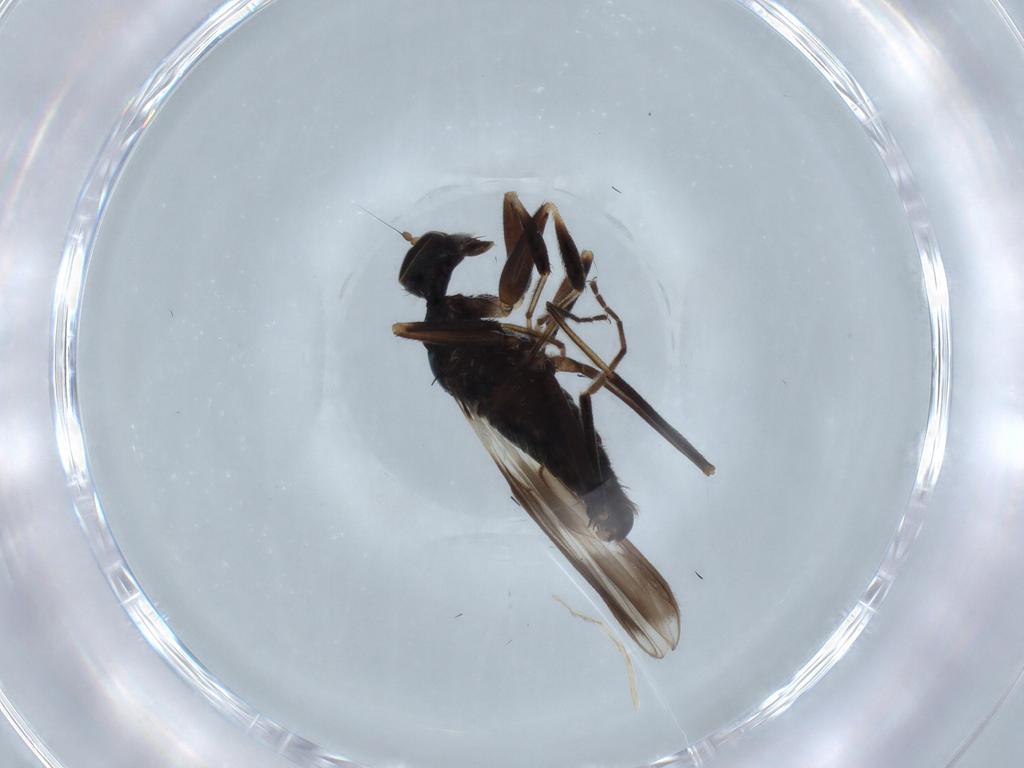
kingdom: Animalia
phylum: Arthropoda
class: Insecta
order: Diptera
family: Hybotidae
